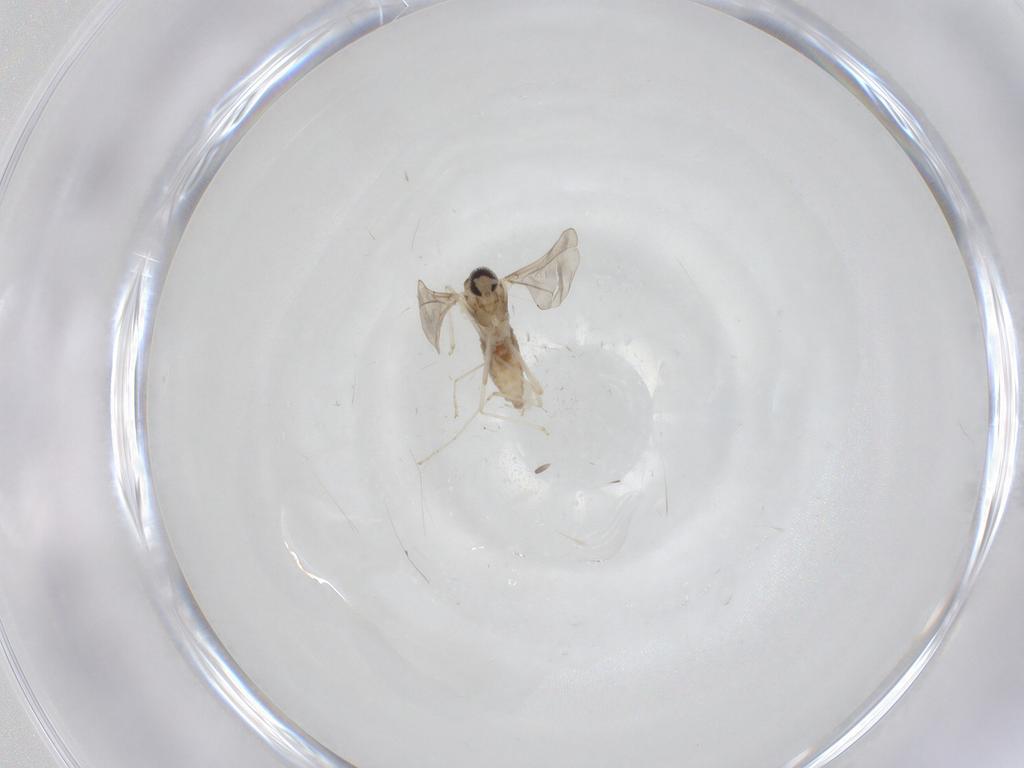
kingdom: Animalia
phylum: Arthropoda
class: Insecta
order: Diptera
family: Cecidomyiidae
